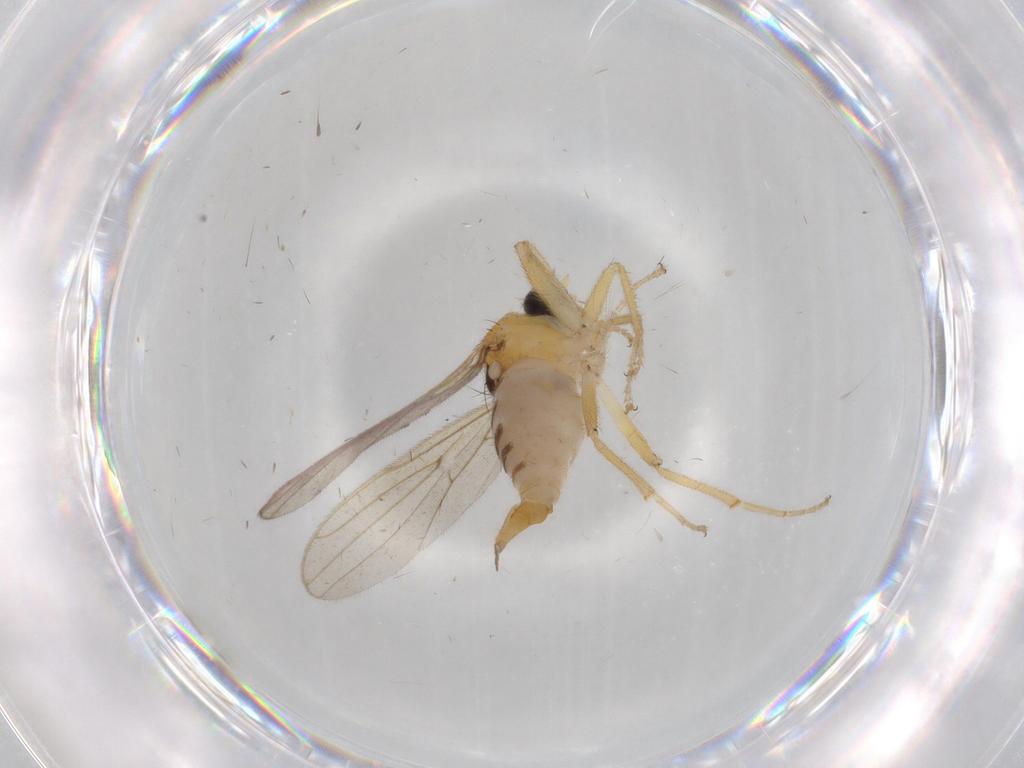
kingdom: Animalia
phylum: Arthropoda
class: Insecta
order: Diptera
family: Hybotidae
